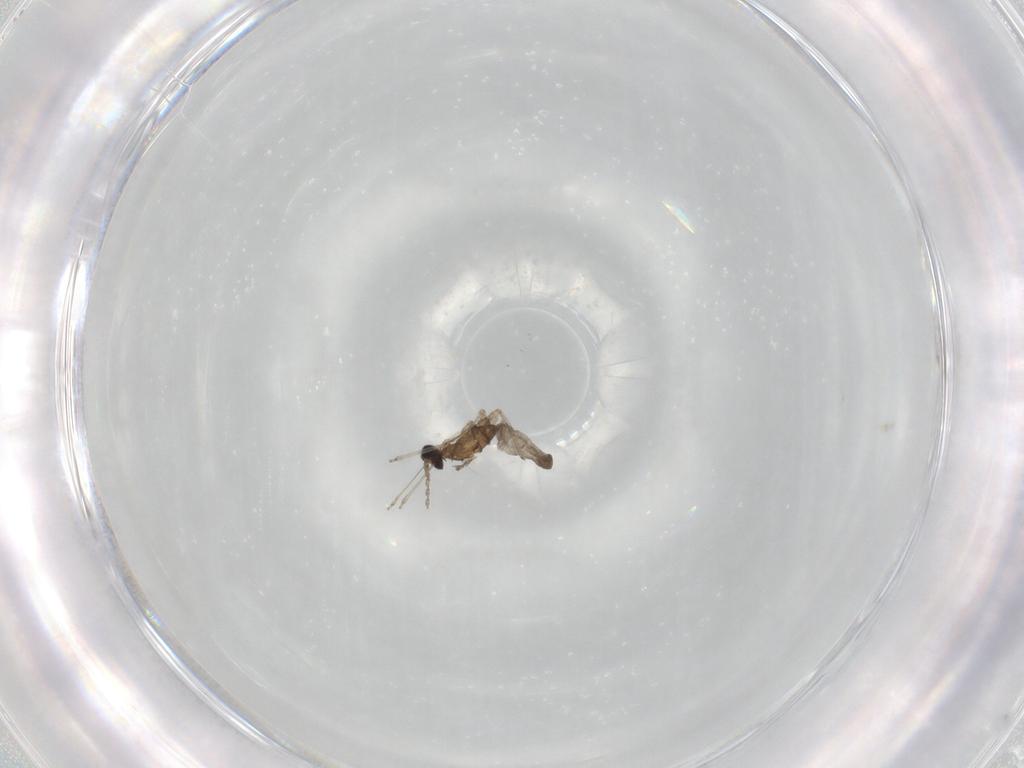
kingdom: Animalia
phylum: Arthropoda
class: Insecta
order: Diptera
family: Cecidomyiidae
